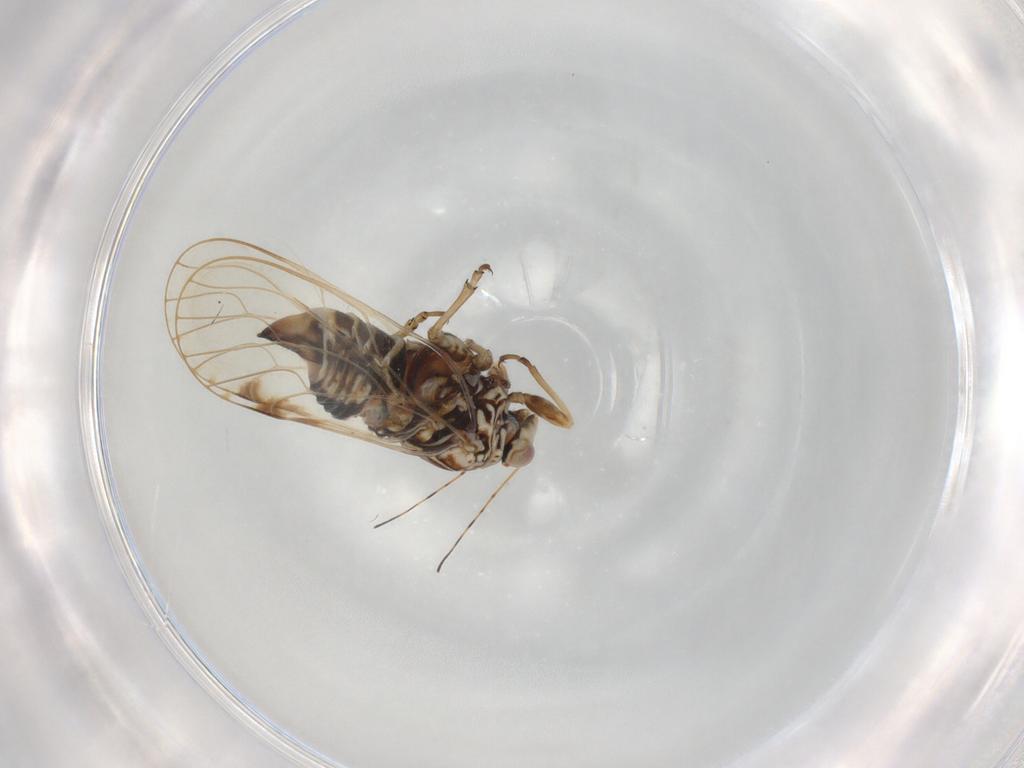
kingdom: Animalia
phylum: Arthropoda
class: Insecta
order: Hemiptera
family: Psylloidea_incertae_sedis
